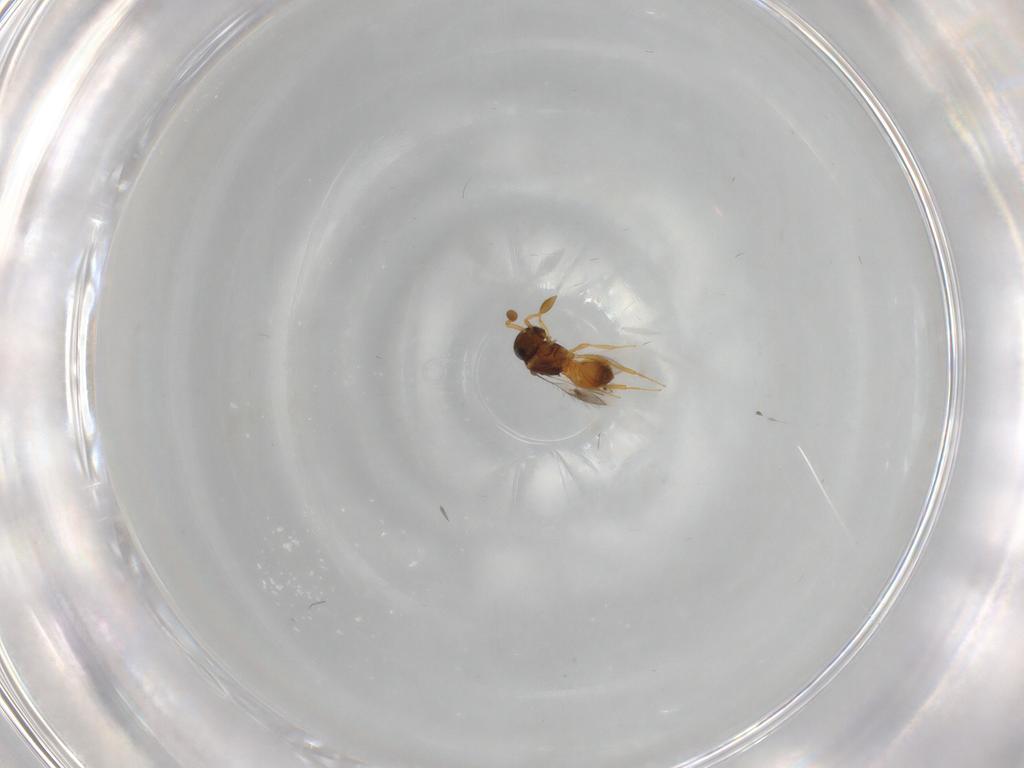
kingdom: Animalia
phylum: Arthropoda
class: Insecta
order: Hymenoptera
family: Scelionidae
